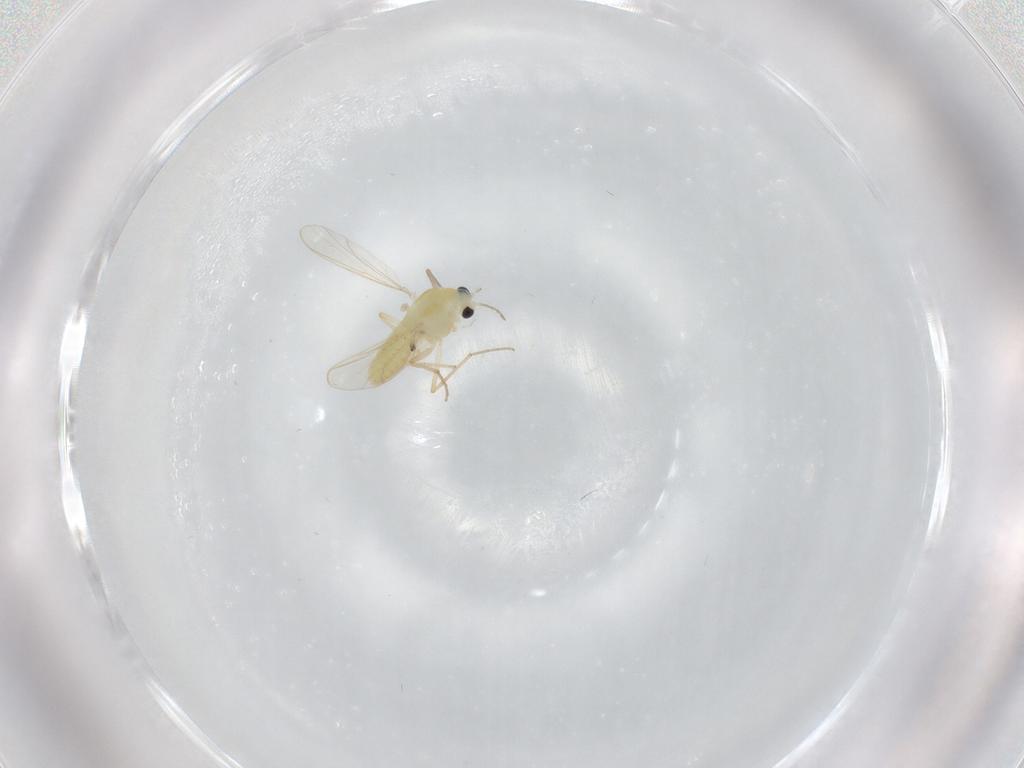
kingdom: Animalia
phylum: Arthropoda
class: Insecta
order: Diptera
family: Chironomidae
